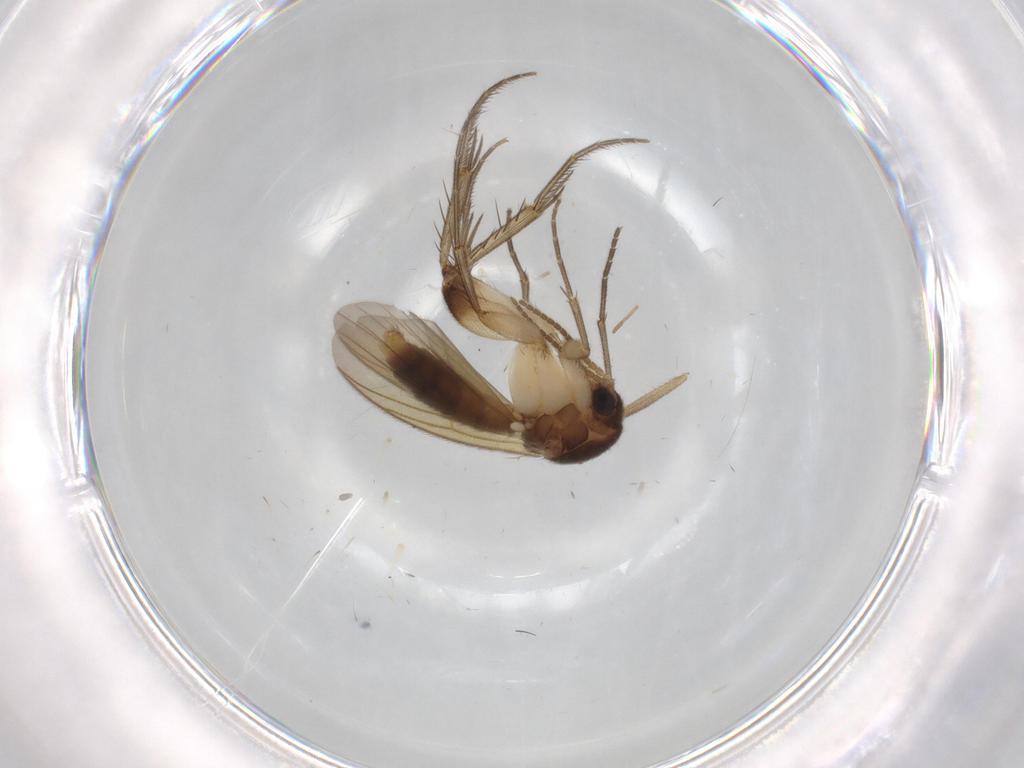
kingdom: Animalia
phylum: Arthropoda
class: Insecta
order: Diptera
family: Sciaridae
